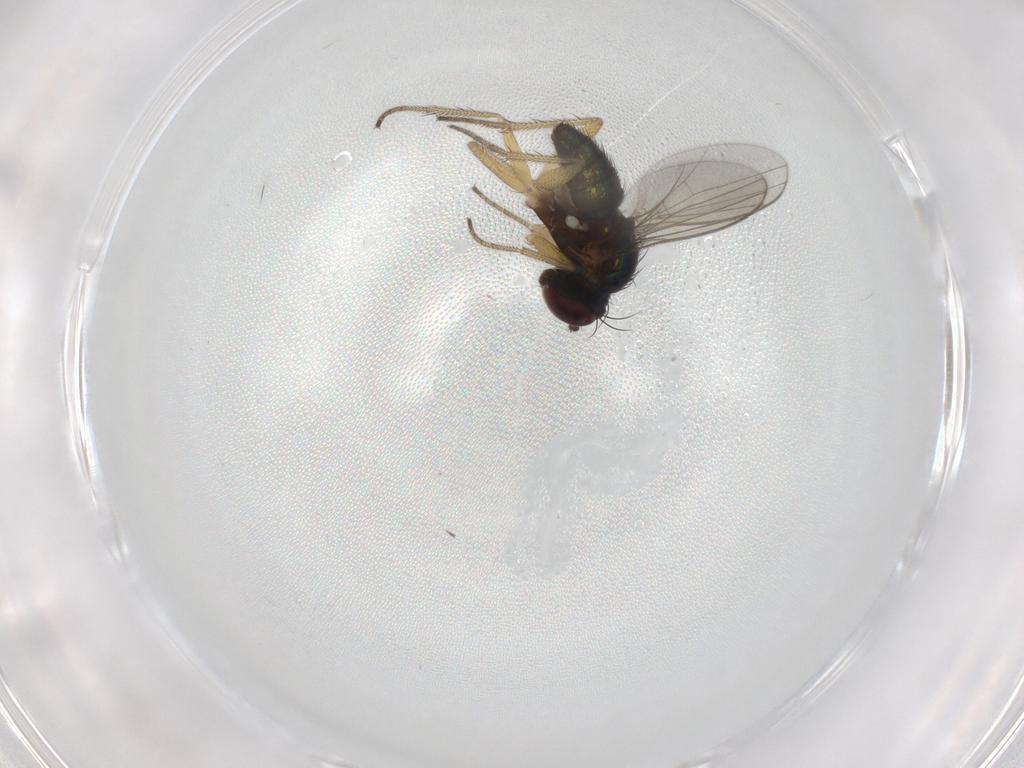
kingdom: Animalia
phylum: Arthropoda
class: Insecta
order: Diptera
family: Dolichopodidae
